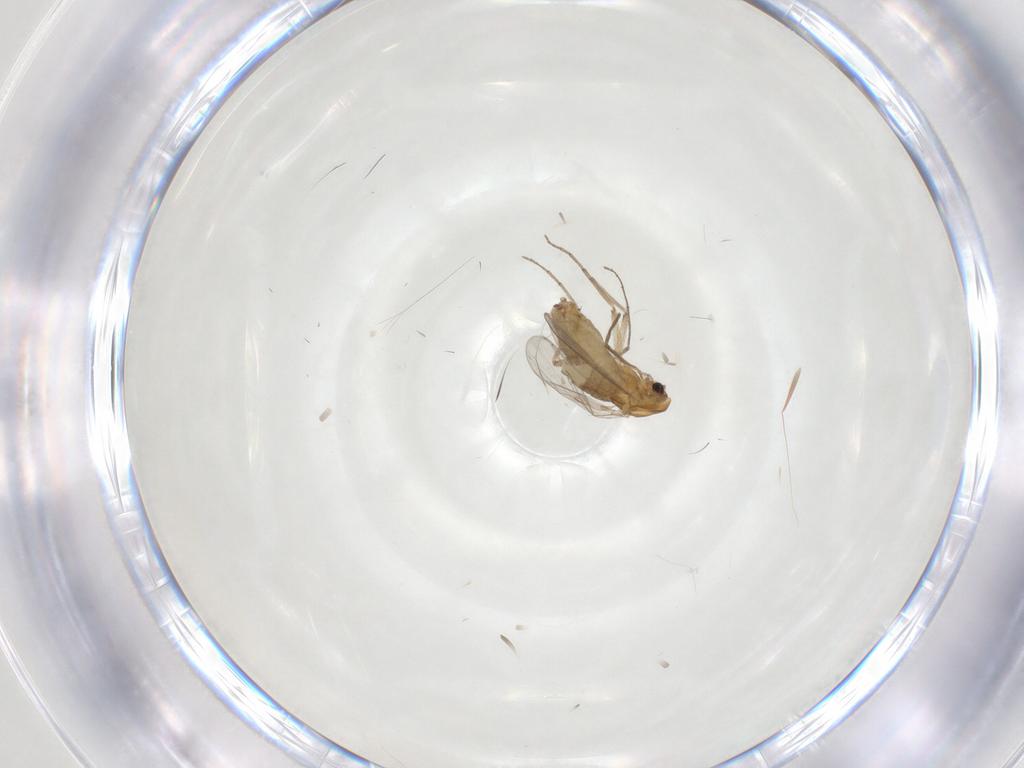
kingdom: Animalia
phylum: Arthropoda
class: Insecta
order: Diptera
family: Chironomidae
